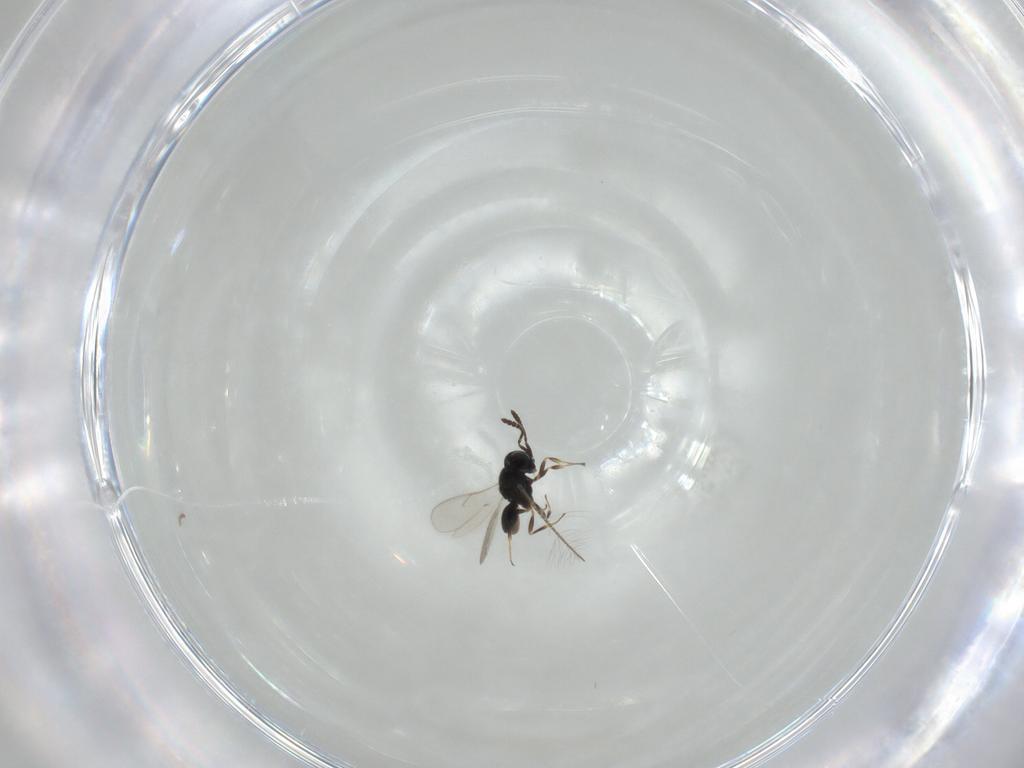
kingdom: Animalia
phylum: Arthropoda
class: Insecta
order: Hymenoptera
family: Scelionidae
